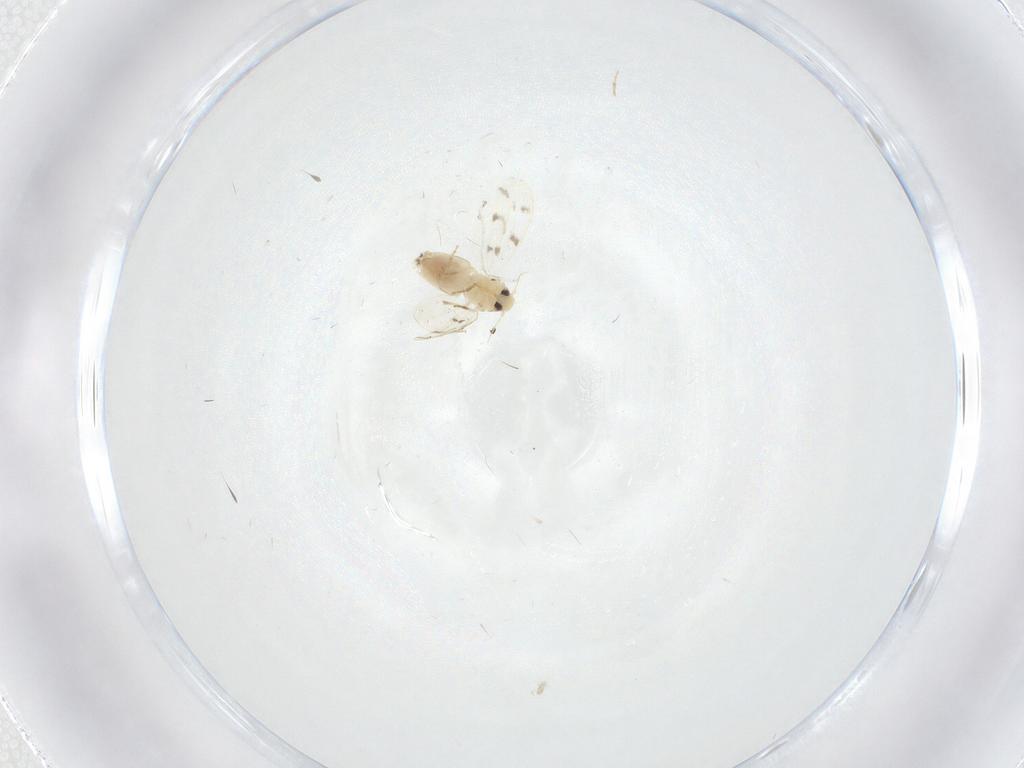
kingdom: Animalia
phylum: Arthropoda
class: Insecta
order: Hemiptera
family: Aleyrodidae
